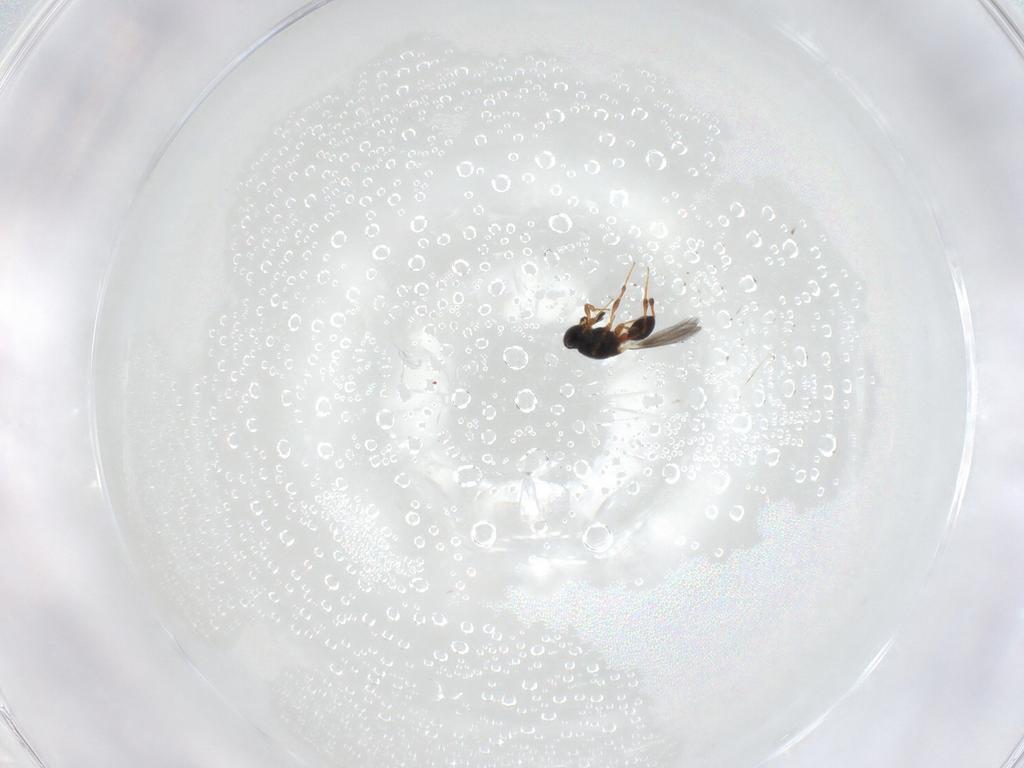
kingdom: Animalia
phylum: Arthropoda
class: Insecta
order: Hymenoptera
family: Platygastridae
